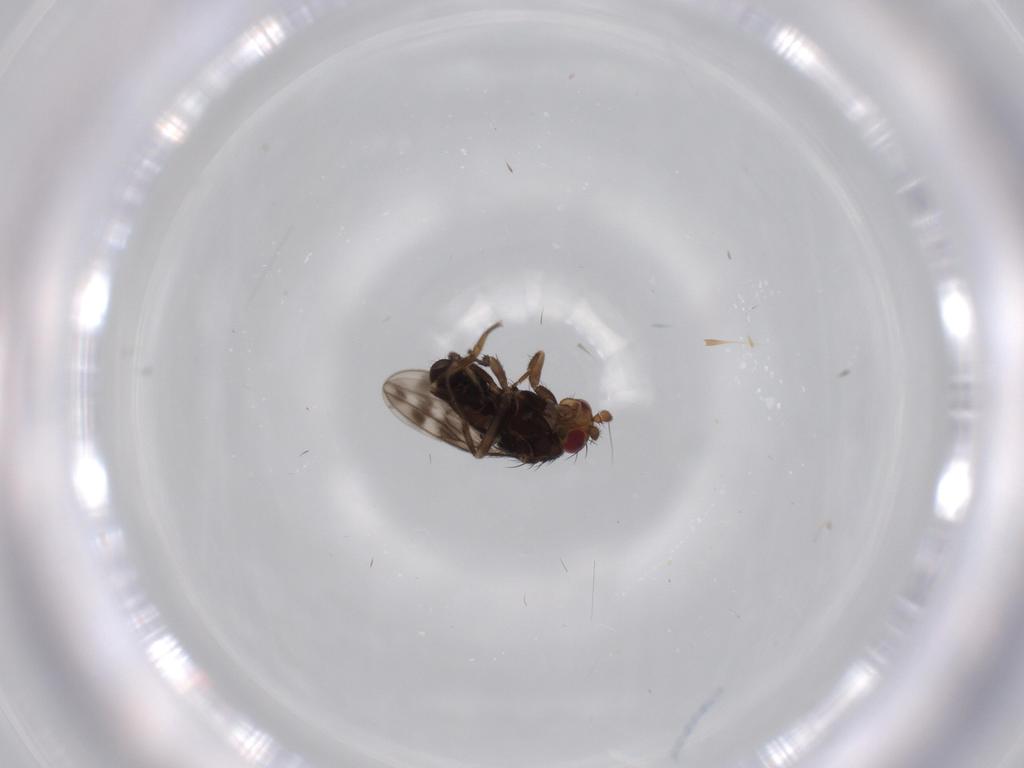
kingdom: Animalia
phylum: Arthropoda
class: Insecta
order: Diptera
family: Sphaeroceridae
